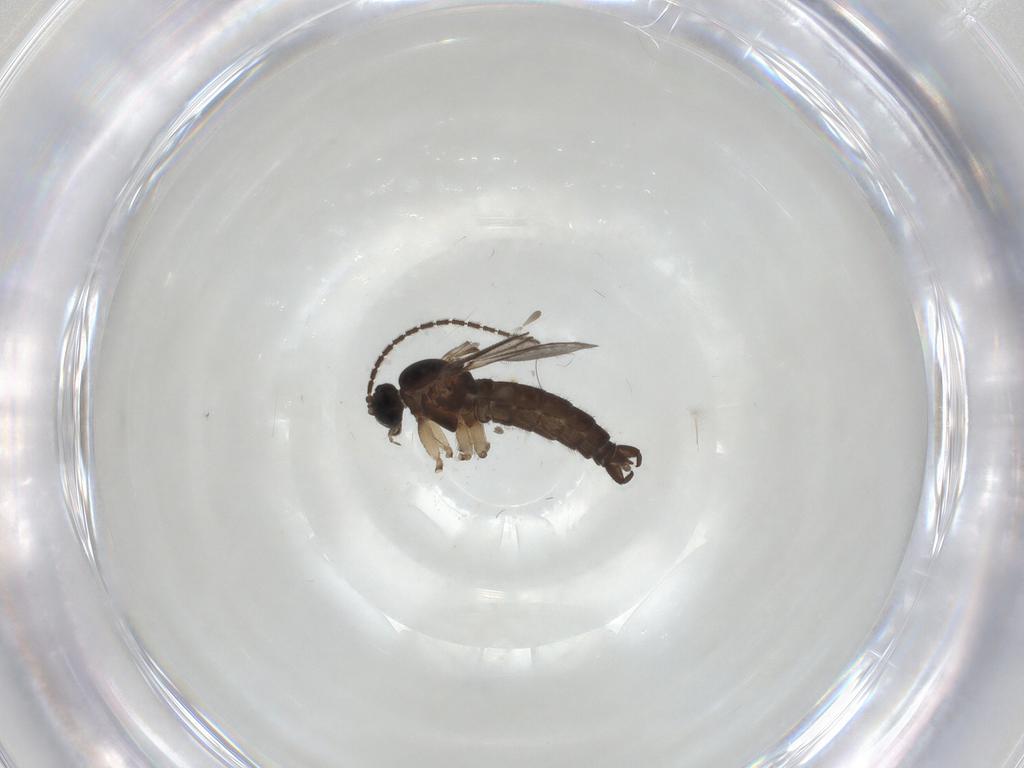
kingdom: Animalia
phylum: Arthropoda
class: Insecta
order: Diptera
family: Sciaridae
